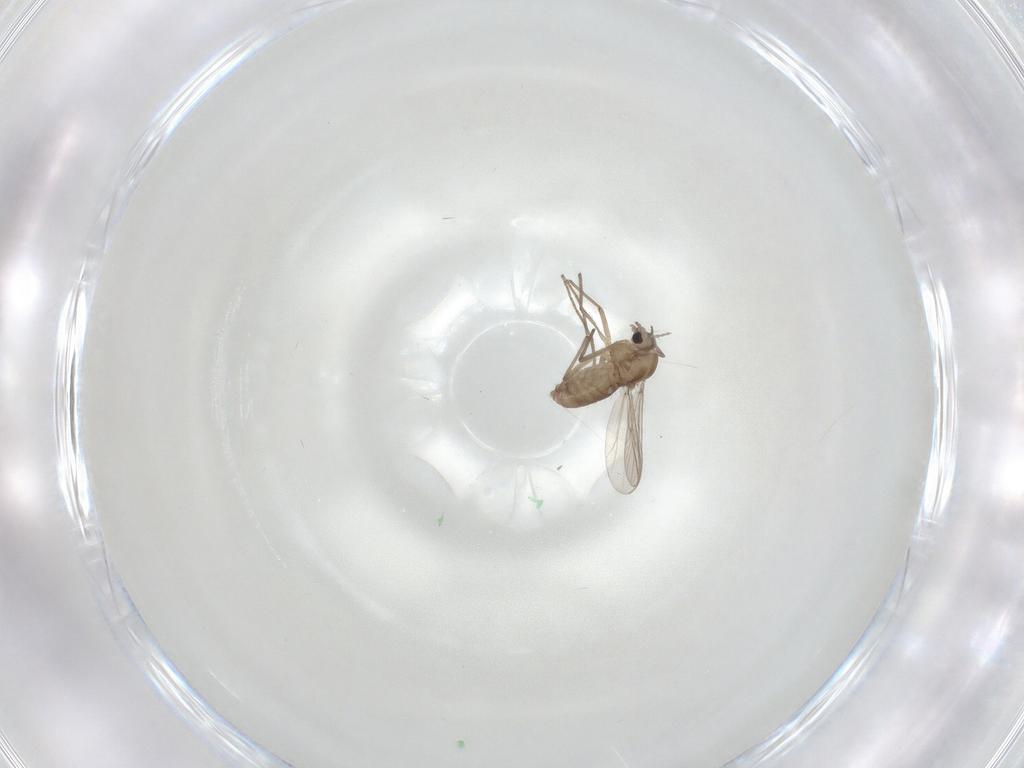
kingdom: Animalia
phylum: Arthropoda
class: Insecta
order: Diptera
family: Chironomidae
